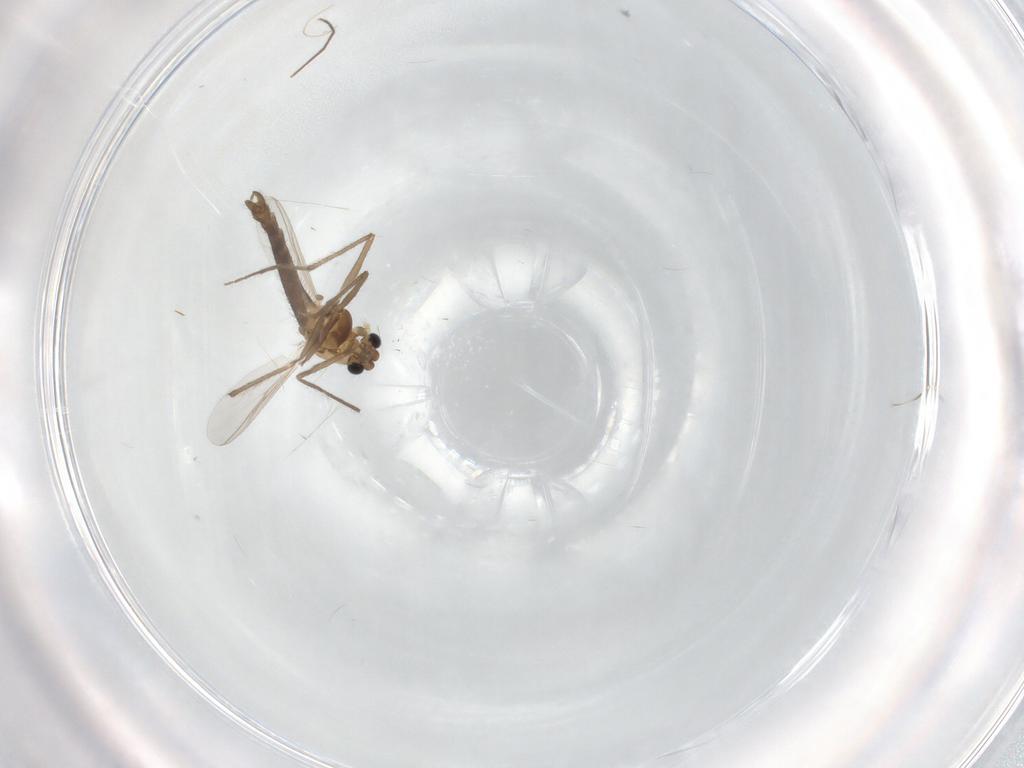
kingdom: Animalia
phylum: Arthropoda
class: Insecta
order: Diptera
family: Chironomidae
